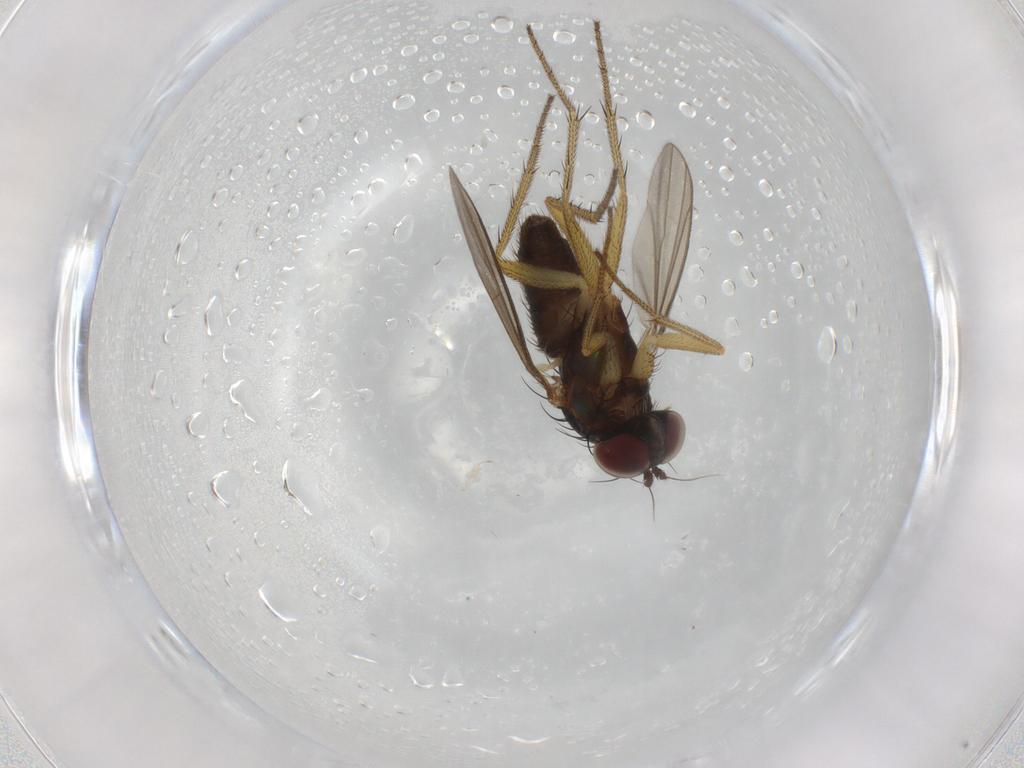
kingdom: Animalia
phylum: Arthropoda
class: Insecta
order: Diptera
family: Dolichopodidae
